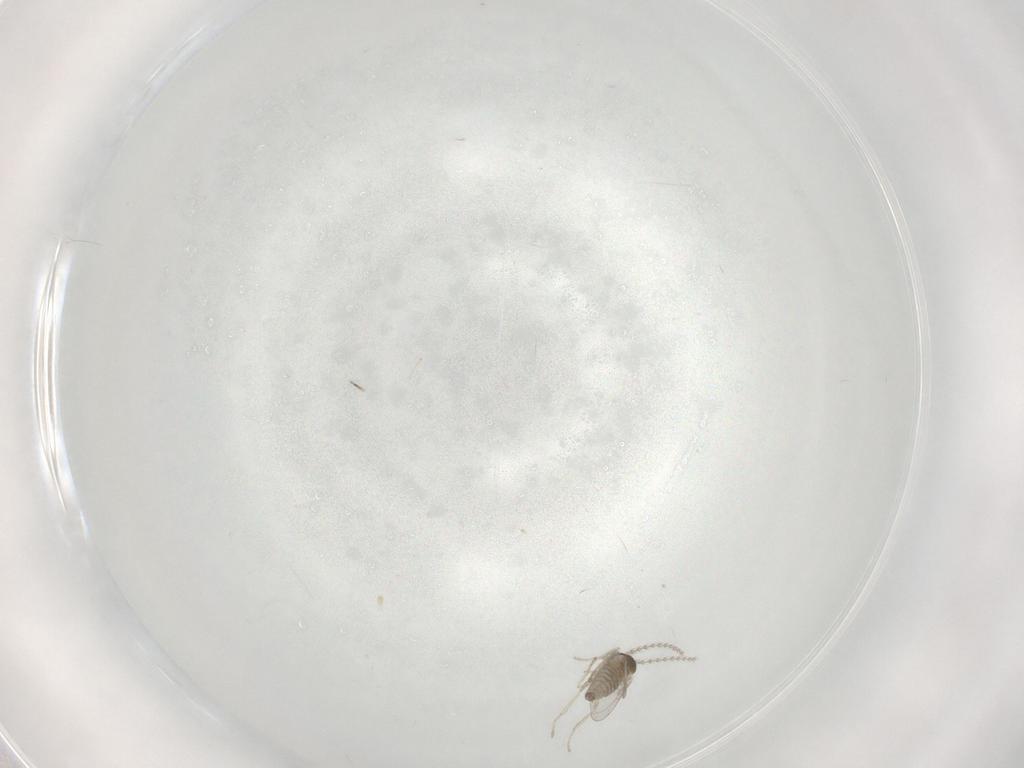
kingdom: Animalia
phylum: Arthropoda
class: Insecta
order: Diptera
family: Cecidomyiidae
